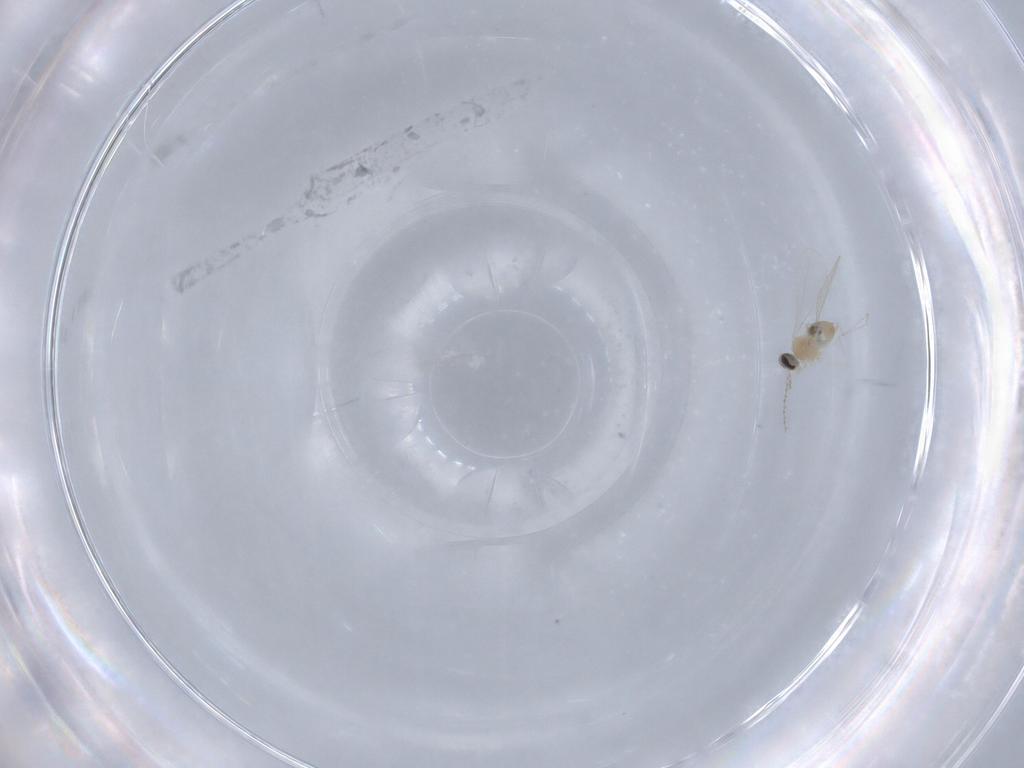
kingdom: Animalia
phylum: Arthropoda
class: Insecta
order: Diptera
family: Cecidomyiidae
